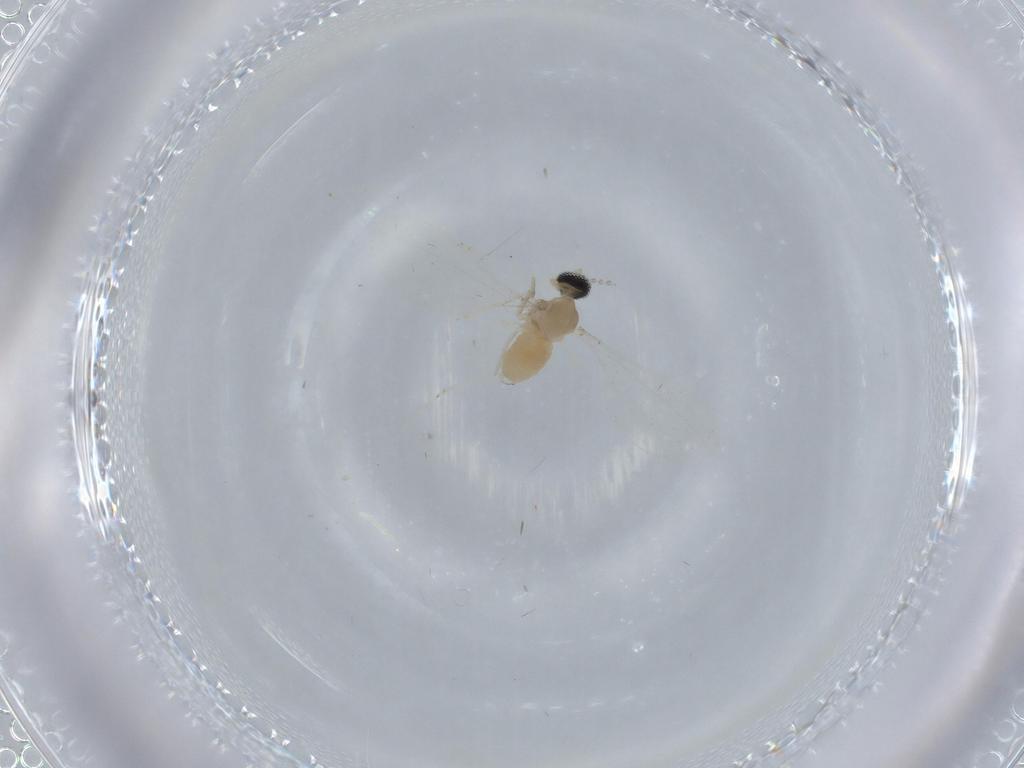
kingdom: Animalia
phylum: Arthropoda
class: Insecta
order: Diptera
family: Cecidomyiidae
